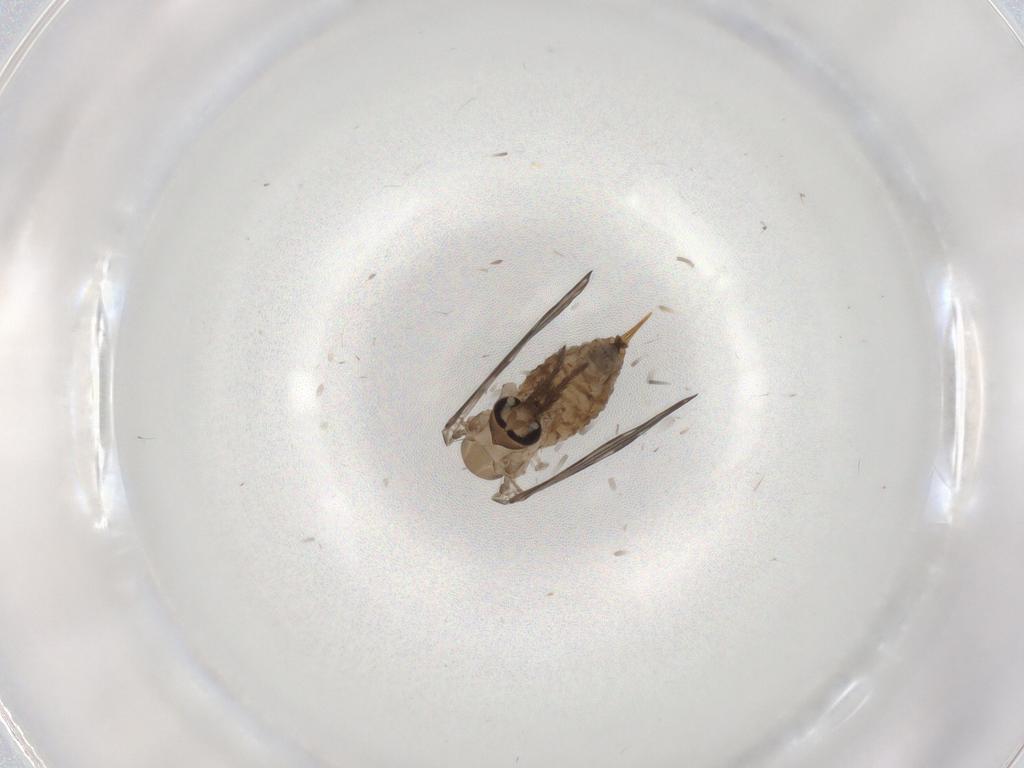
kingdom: Animalia
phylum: Arthropoda
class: Insecta
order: Diptera
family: Psychodidae
